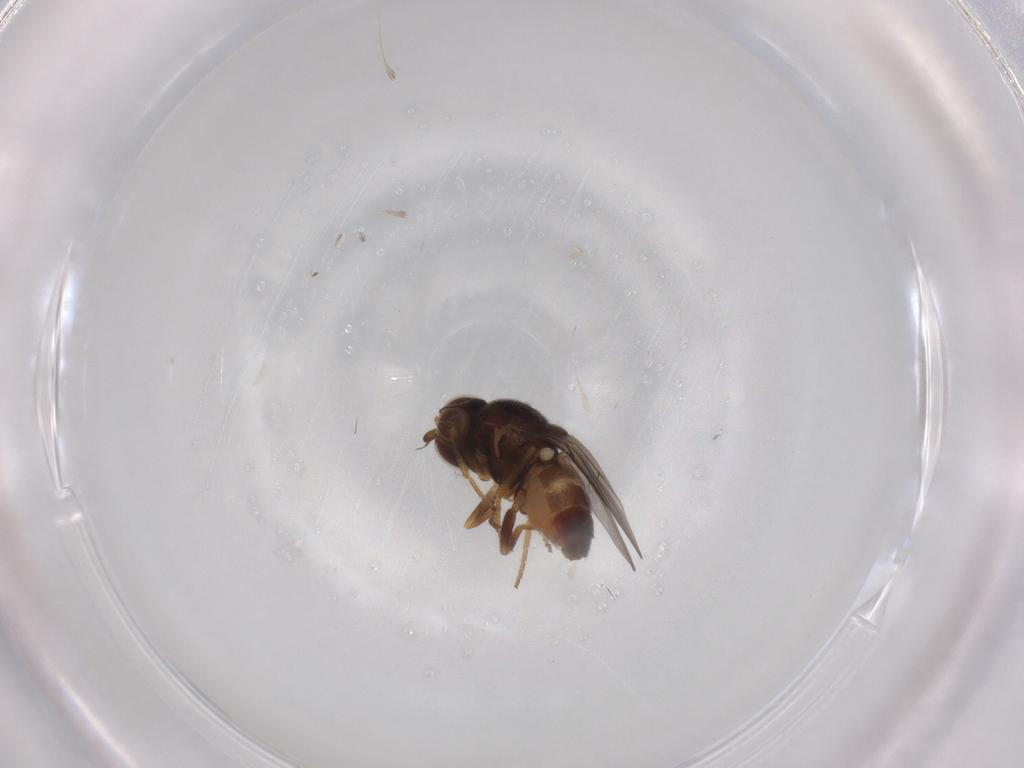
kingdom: Animalia
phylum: Arthropoda
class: Insecta
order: Diptera
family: Chloropidae
